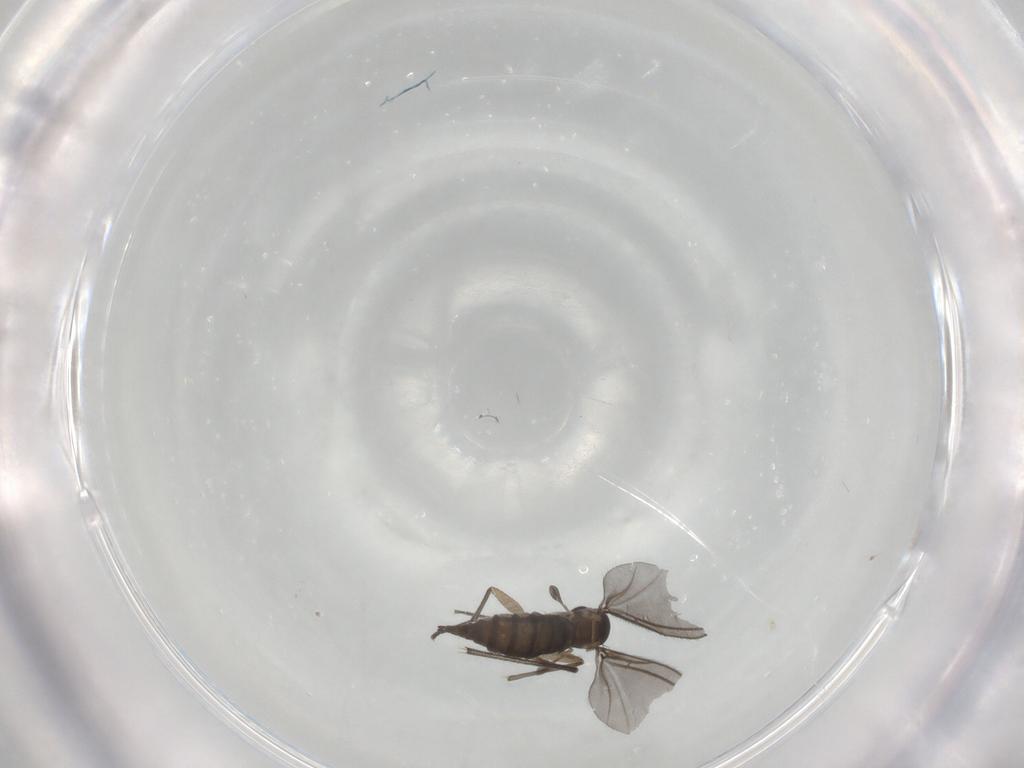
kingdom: Animalia
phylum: Arthropoda
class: Insecta
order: Diptera
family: Sciaridae
